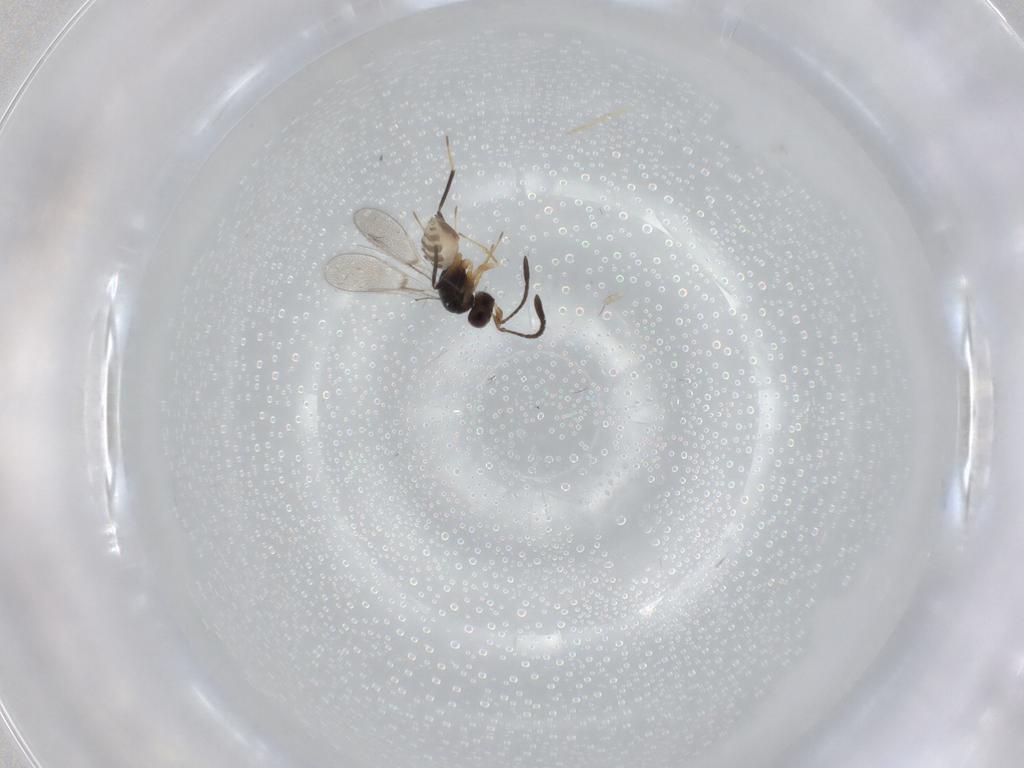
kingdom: Animalia
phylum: Arthropoda
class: Insecta
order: Hymenoptera
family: Mymaridae
